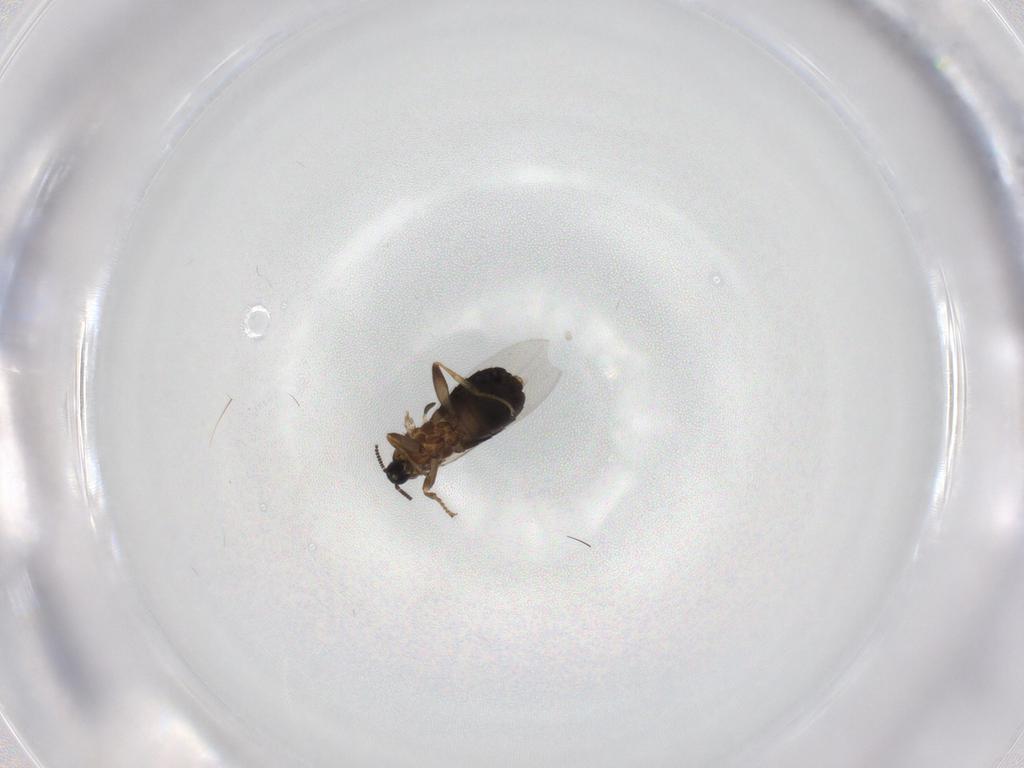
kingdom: Animalia
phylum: Arthropoda
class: Insecta
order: Diptera
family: Scatopsidae
